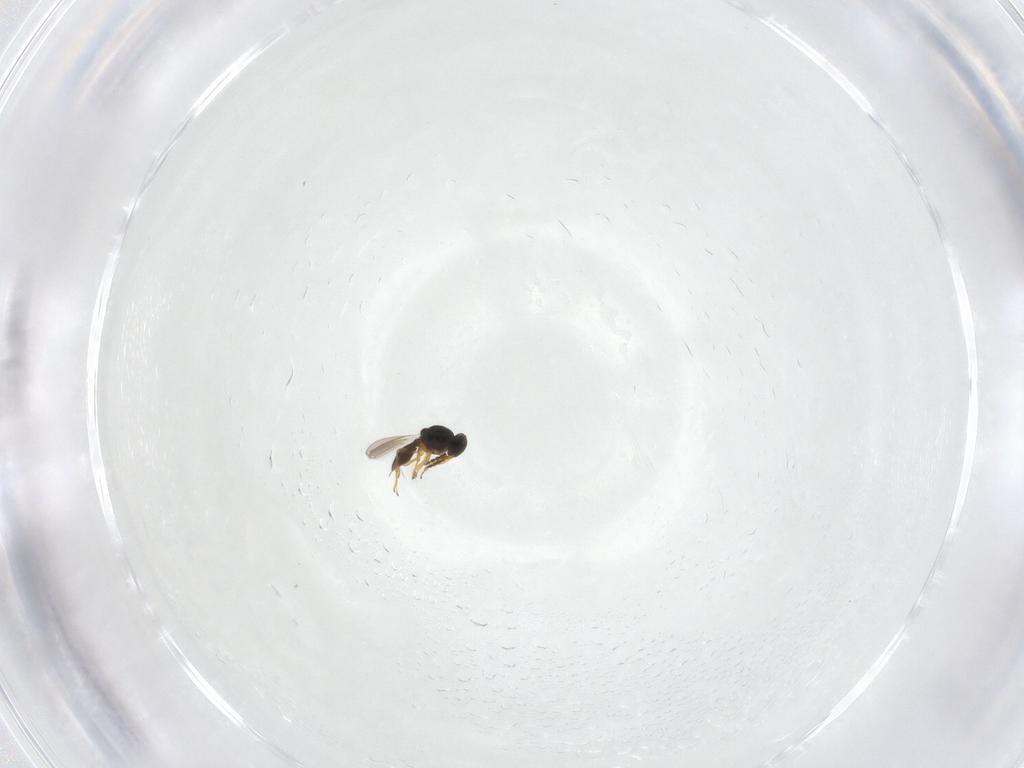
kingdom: Animalia
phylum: Arthropoda
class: Insecta
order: Hymenoptera
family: Platygastridae
